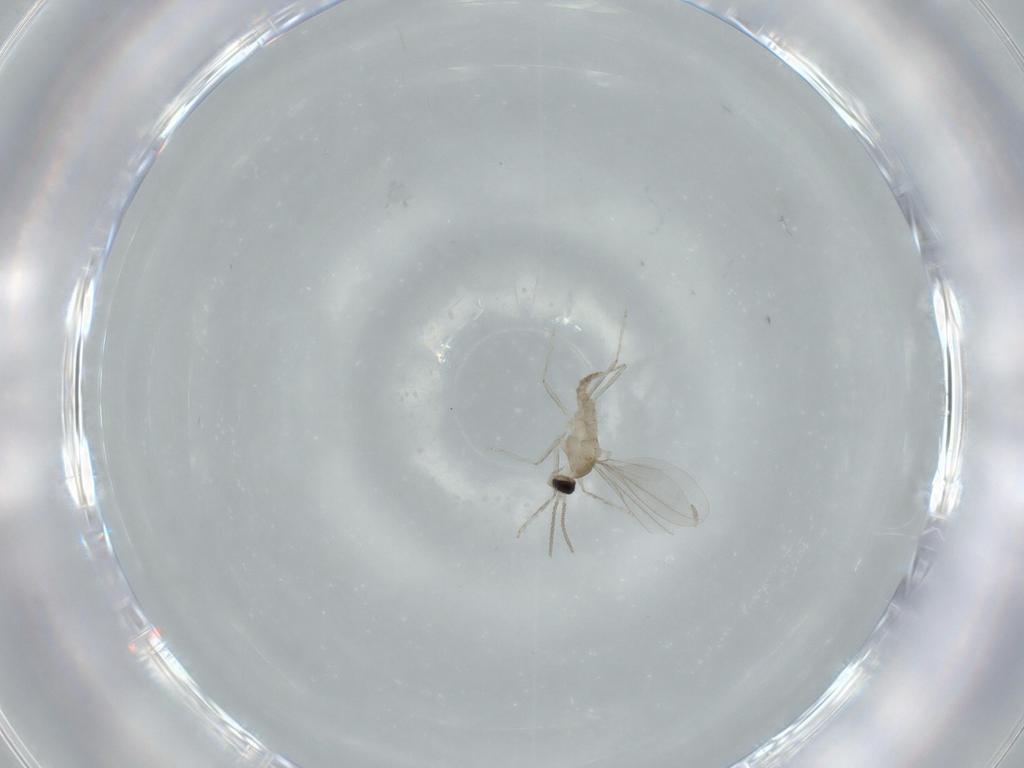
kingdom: Animalia
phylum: Arthropoda
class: Insecta
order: Diptera
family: Cecidomyiidae
